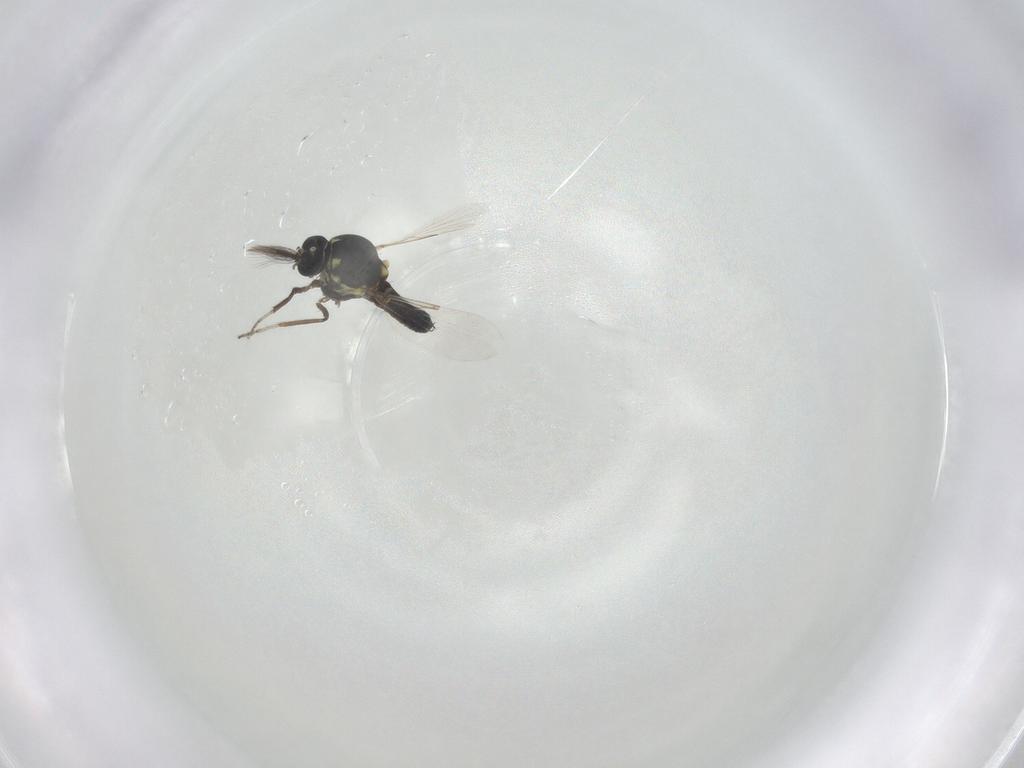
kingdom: Animalia
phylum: Arthropoda
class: Insecta
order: Diptera
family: Ceratopogonidae
